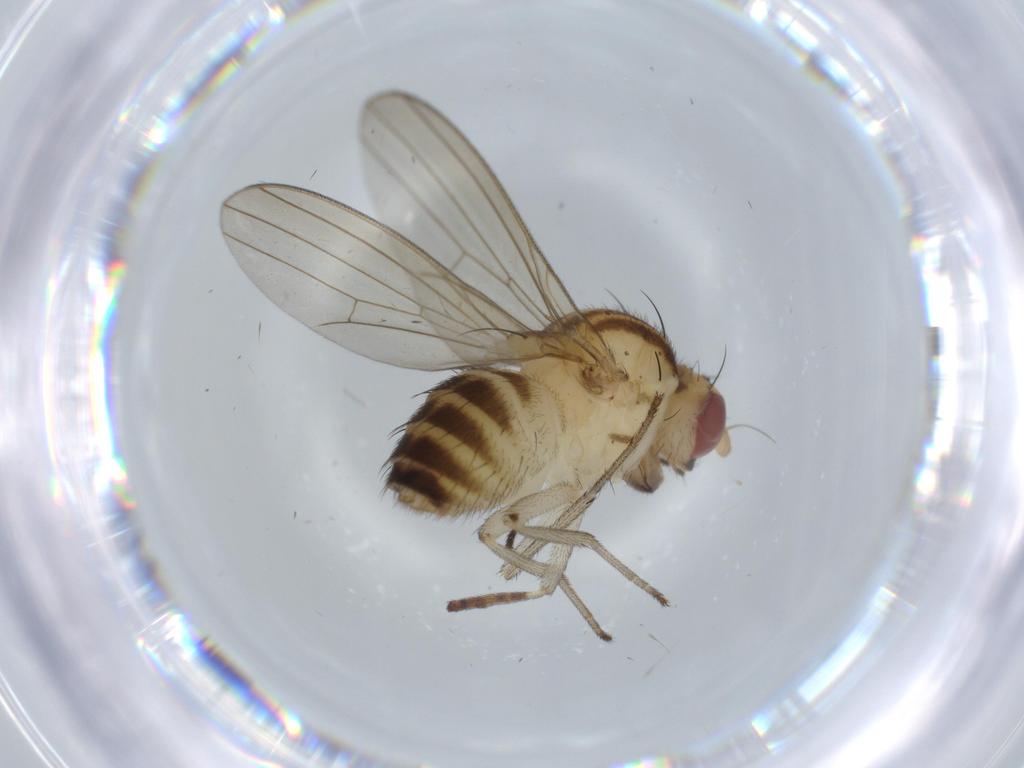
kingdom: Animalia
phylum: Arthropoda
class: Insecta
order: Diptera
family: Lauxaniidae
